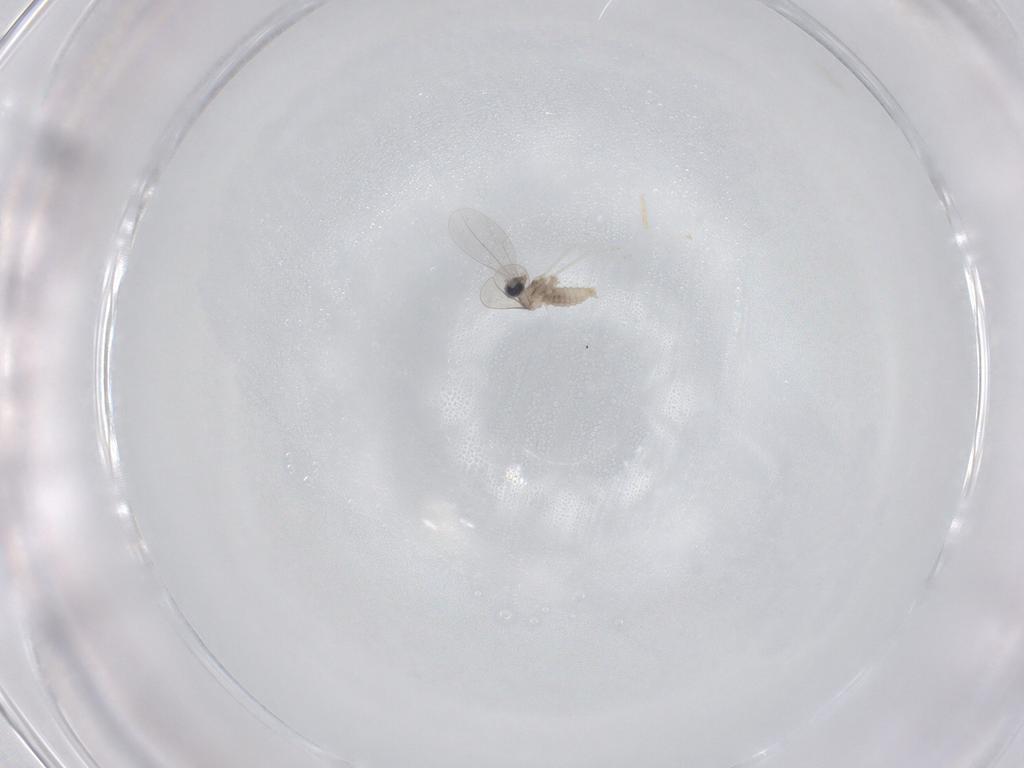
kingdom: Animalia
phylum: Arthropoda
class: Insecta
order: Diptera
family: Cecidomyiidae
